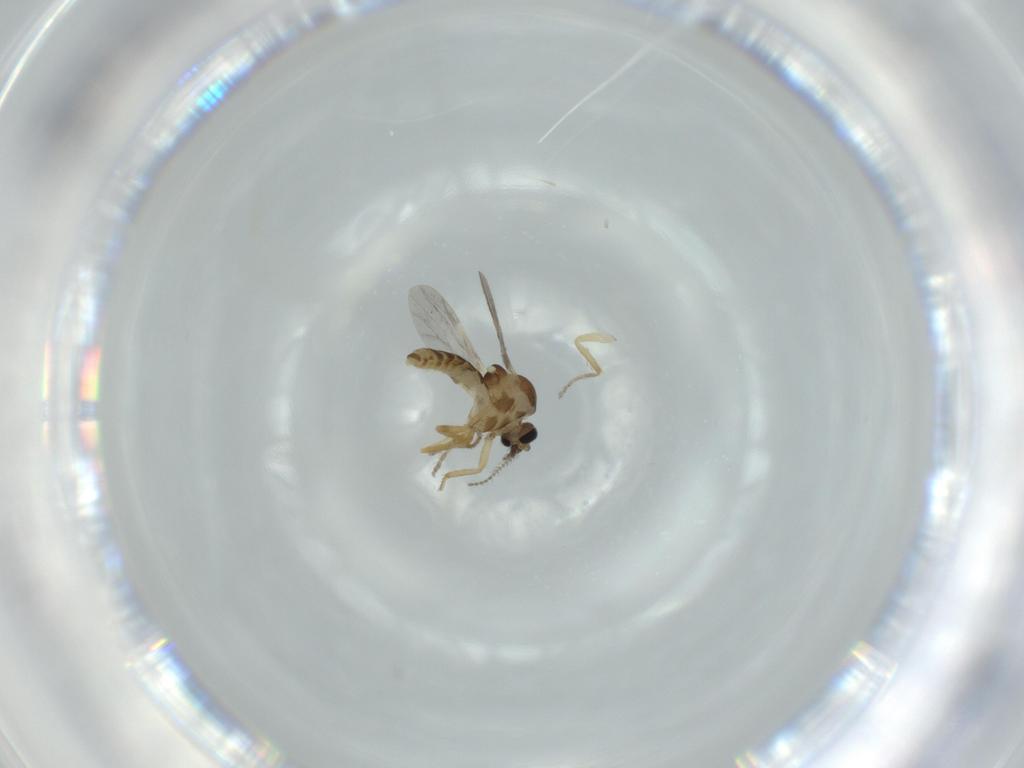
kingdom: Animalia
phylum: Arthropoda
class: Insecta
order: Diptera
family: Ceratopogonidae
